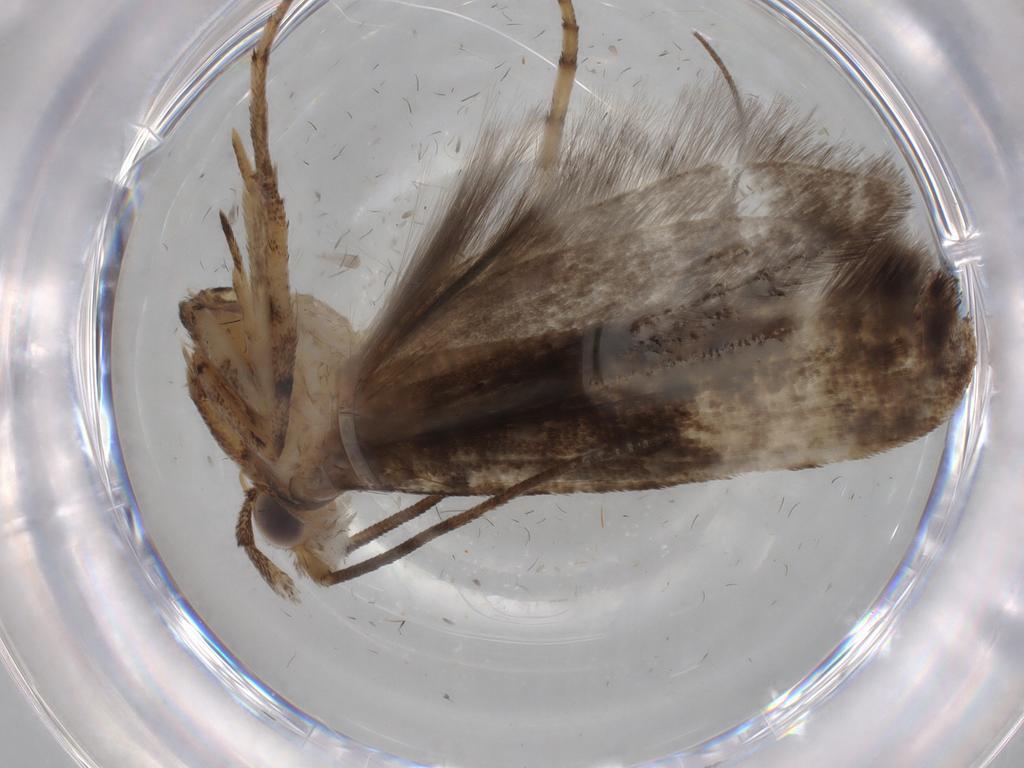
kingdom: Animalia
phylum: Arthropoda
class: Insecta
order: Lepidoptera
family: Yponomeutidae
